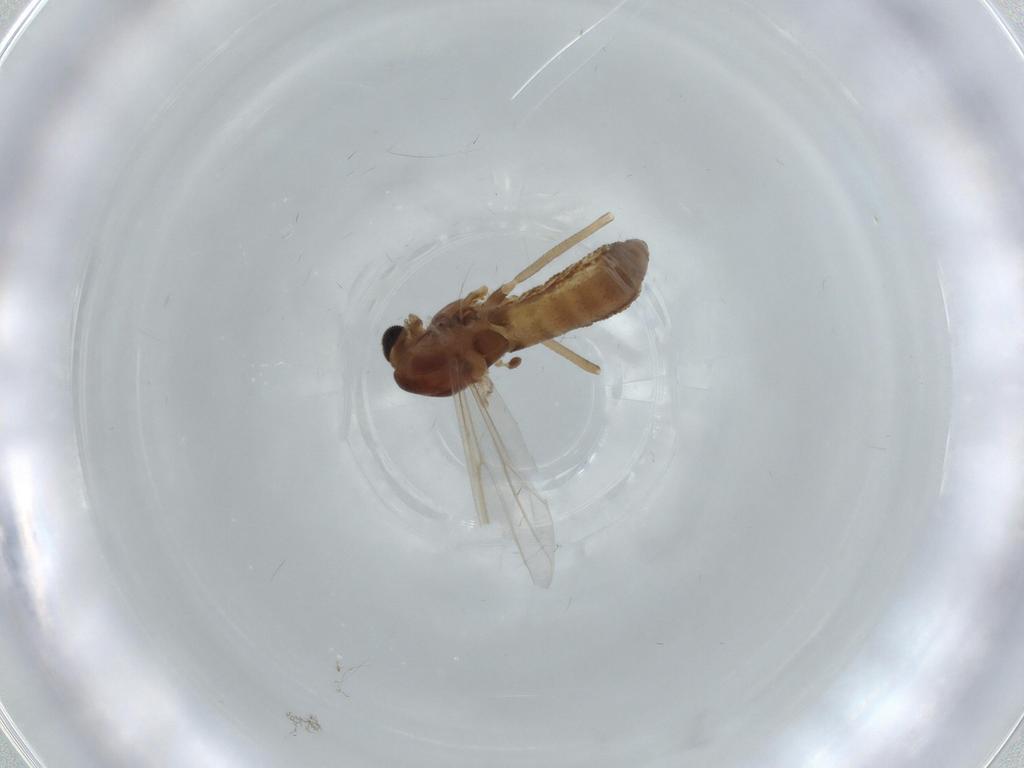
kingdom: Animalia
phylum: Arthropoda
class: Insecta
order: Diptera
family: Chironomidae
